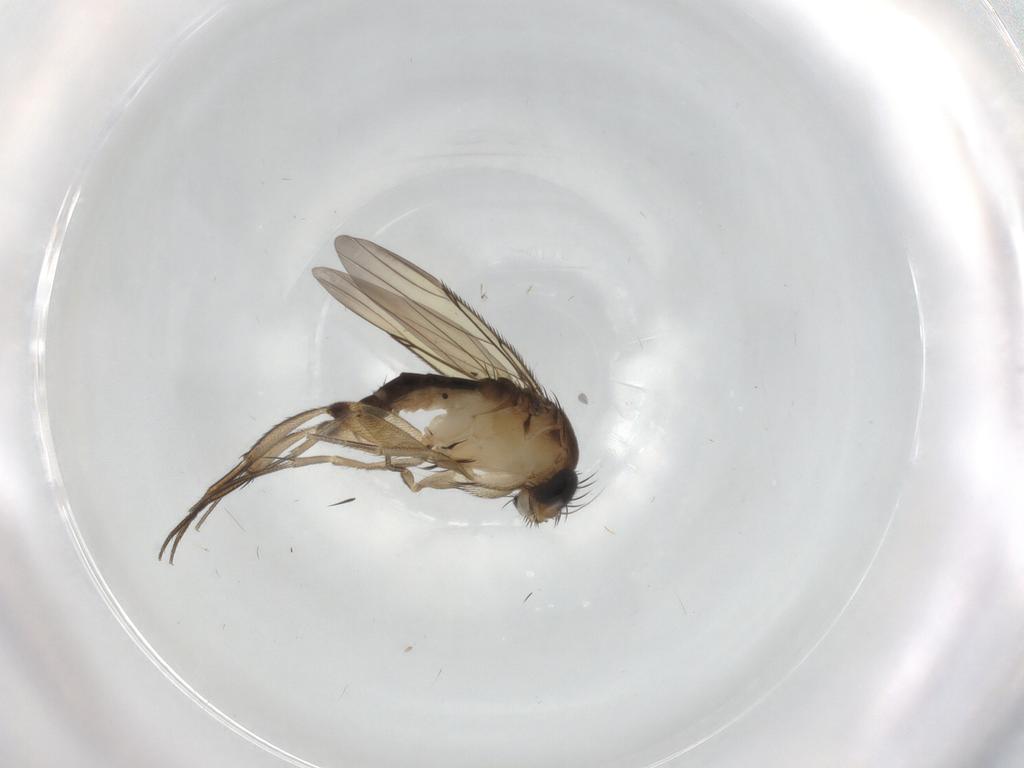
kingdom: Animalia
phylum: Arthropoda
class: Insecta
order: Diptera
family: Phoridae
